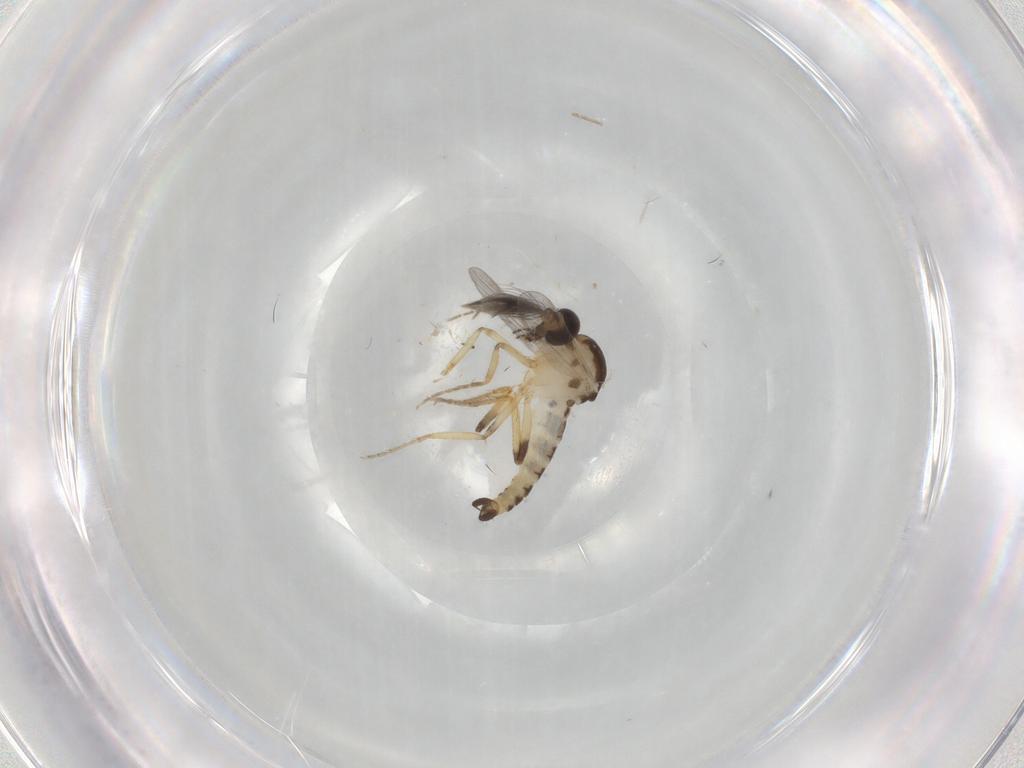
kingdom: Animalia
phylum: Arthropoda
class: Insecta
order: Diptera
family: Ceratopogonidae
